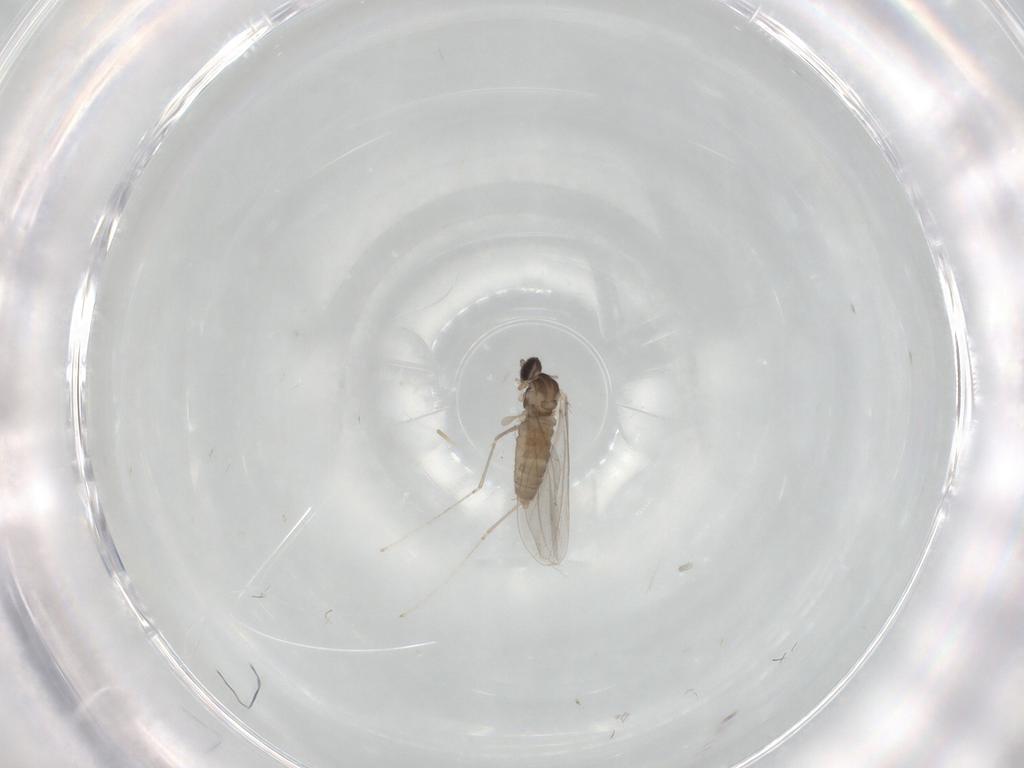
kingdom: Animalia
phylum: Arthropoda
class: Insecta
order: Diptera
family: Cecidomyiidae
